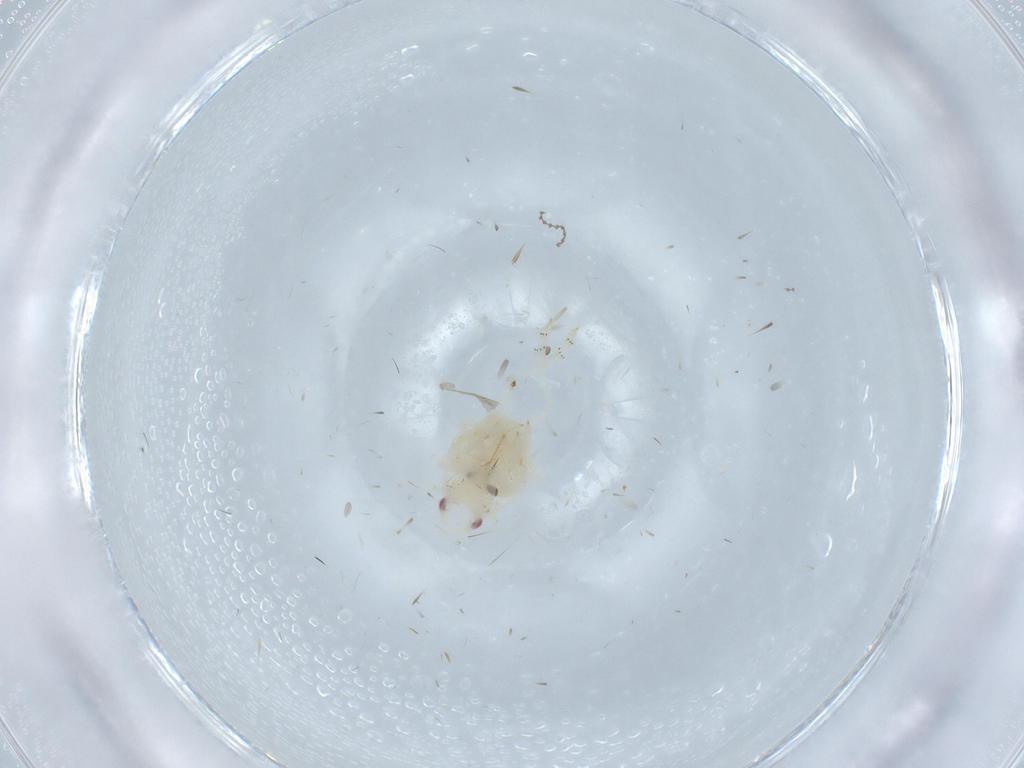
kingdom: Animalia
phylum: Arthropoda
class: Insecta
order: Hemiptera
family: Flatidae
